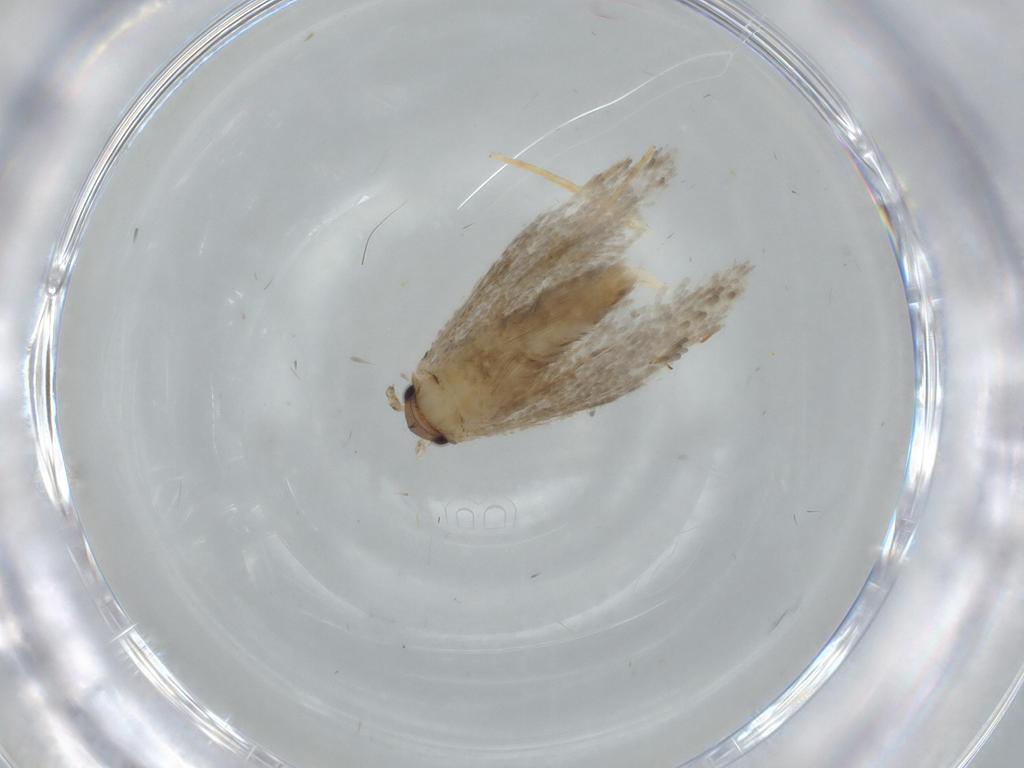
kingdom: Animalia
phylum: Arthropoda
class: Insecta
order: Lepidoptera
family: Tineidae
